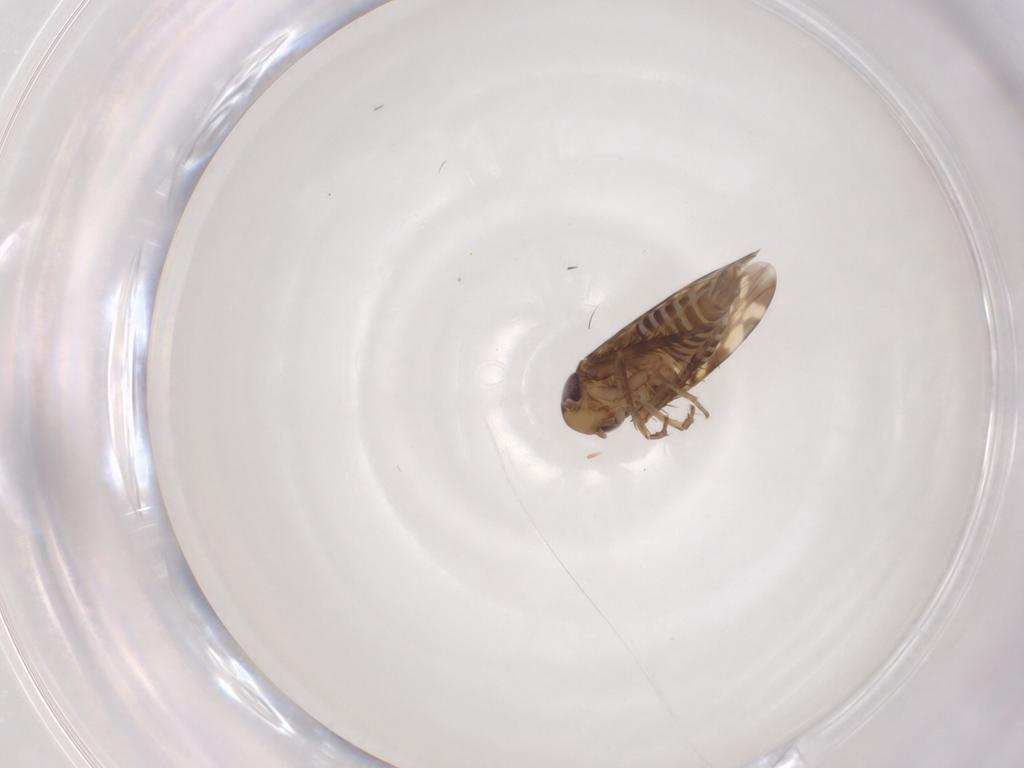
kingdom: Animalia
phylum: Arthropoda
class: Insecta
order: Hemiptera
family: Cicadellidae
